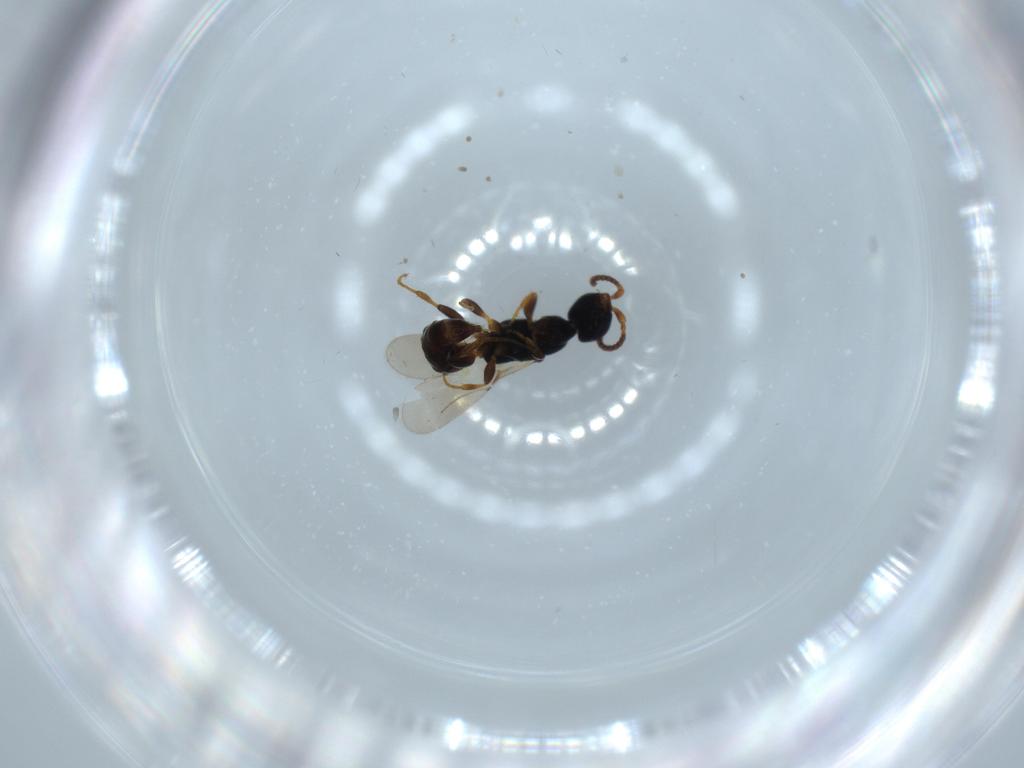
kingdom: Animalia
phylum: Arthropoda
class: Insecta
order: Hymenoptera
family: Bethylidae
